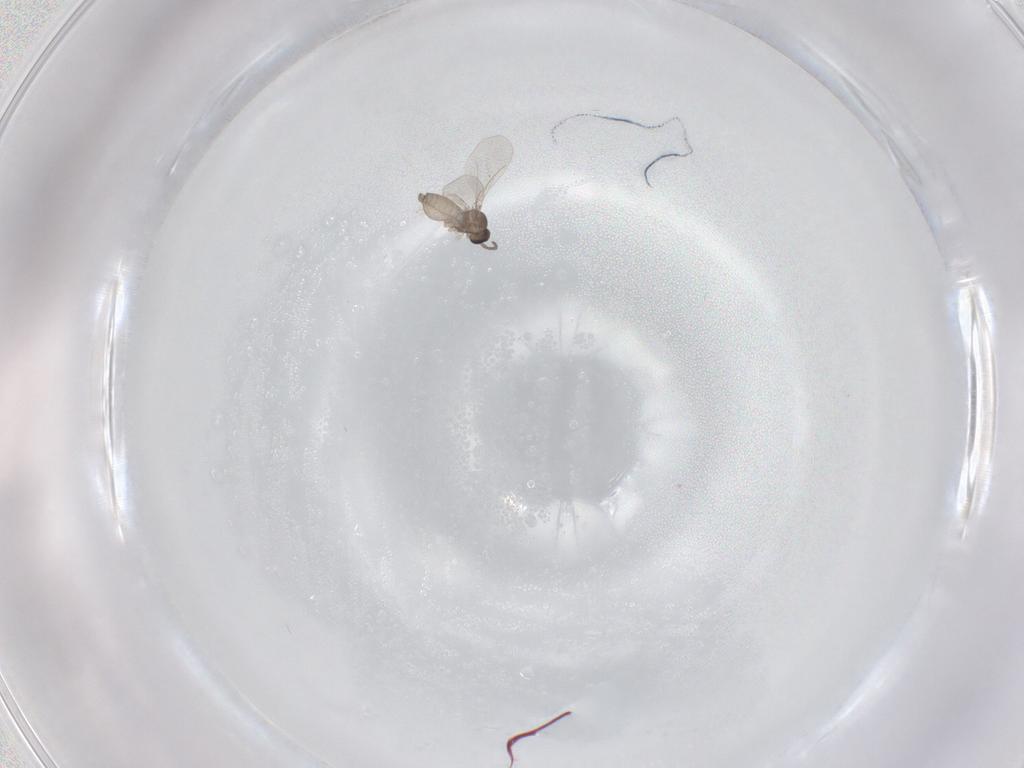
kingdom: Animalia
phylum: Arthropoda
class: Insecta
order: Diptera
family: Cecidomyiidae
